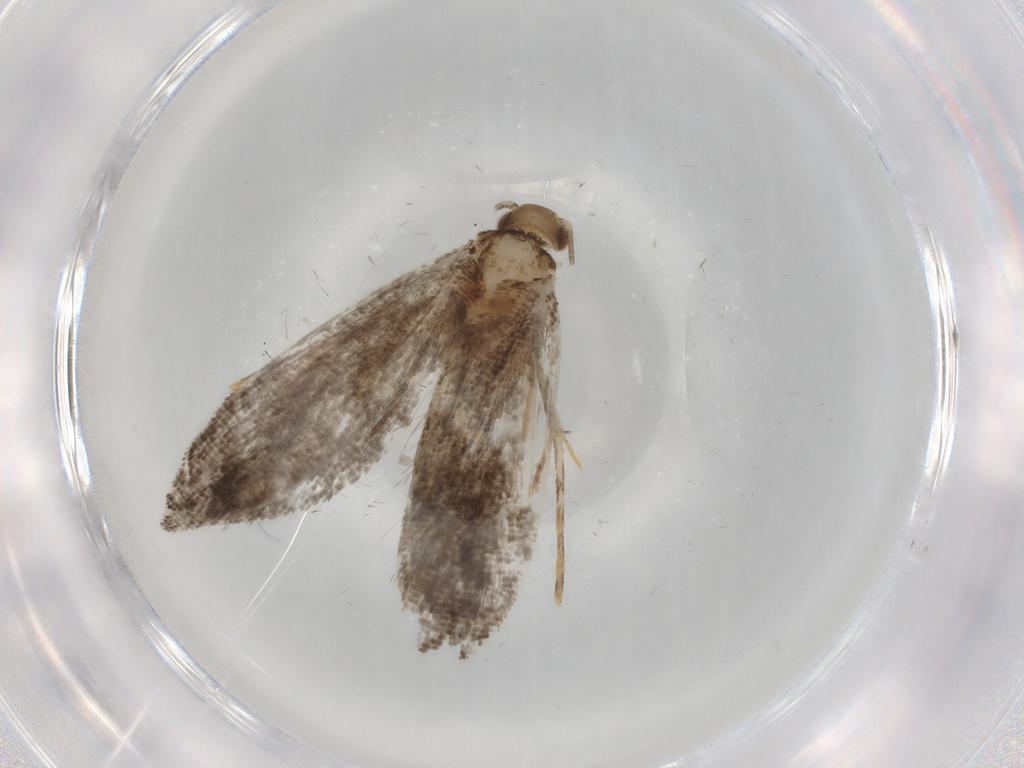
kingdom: Animalia
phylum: Arthropoda
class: Insecta
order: Lepidoptera
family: Tineidae
